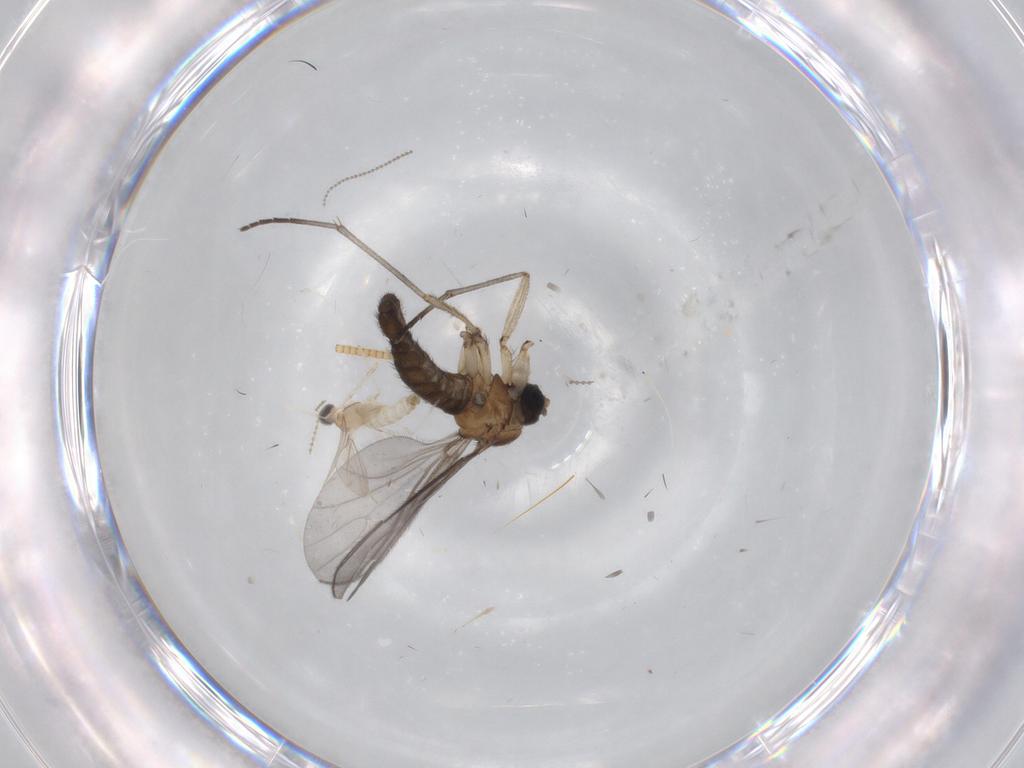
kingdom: Animalia
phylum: Arthropoda
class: Insecta
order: Diptera
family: Sciaridae
